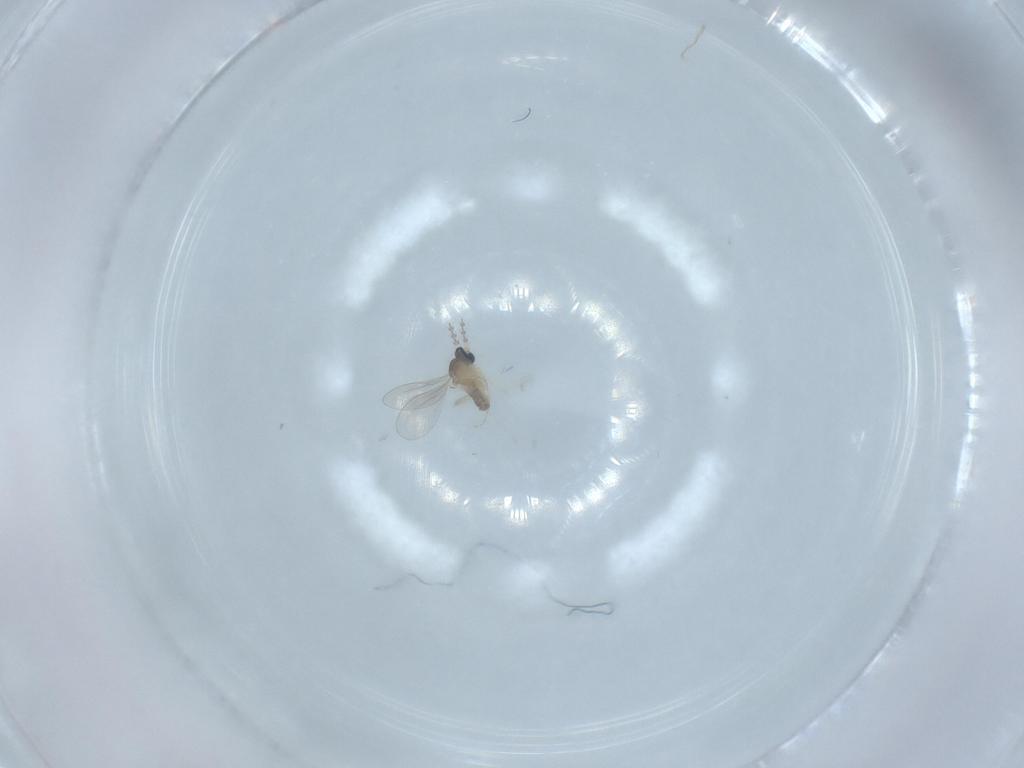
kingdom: Animalia
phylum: Arthropoda
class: Insecta
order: Diptera
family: Cecidomyiidae
